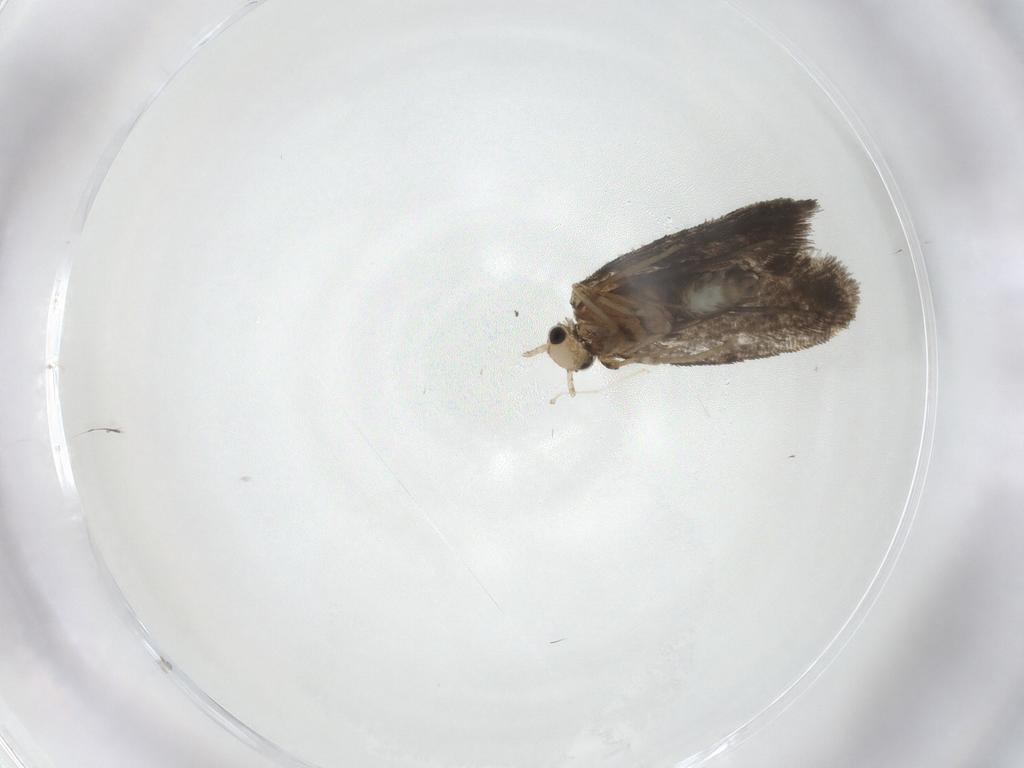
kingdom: Animalia
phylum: Arthropoda
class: Insecta
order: Lepidoptera
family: Psychidae
